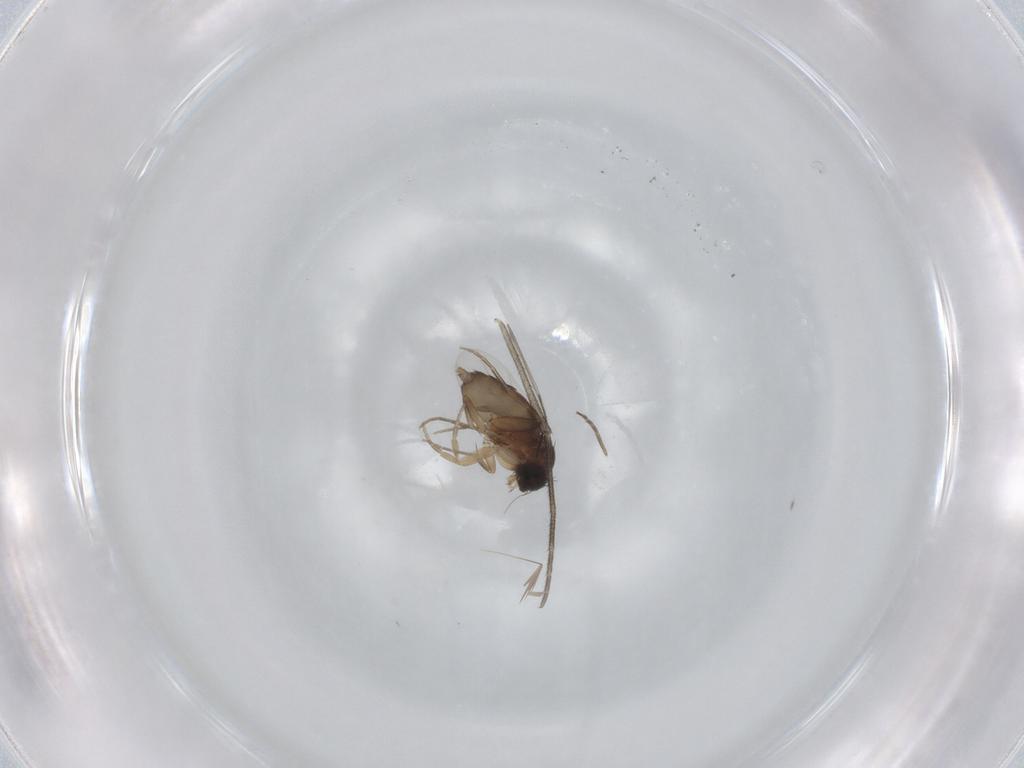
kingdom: Animalia
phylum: Arthropoda
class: Insecta
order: Diptera
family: Phoridae
